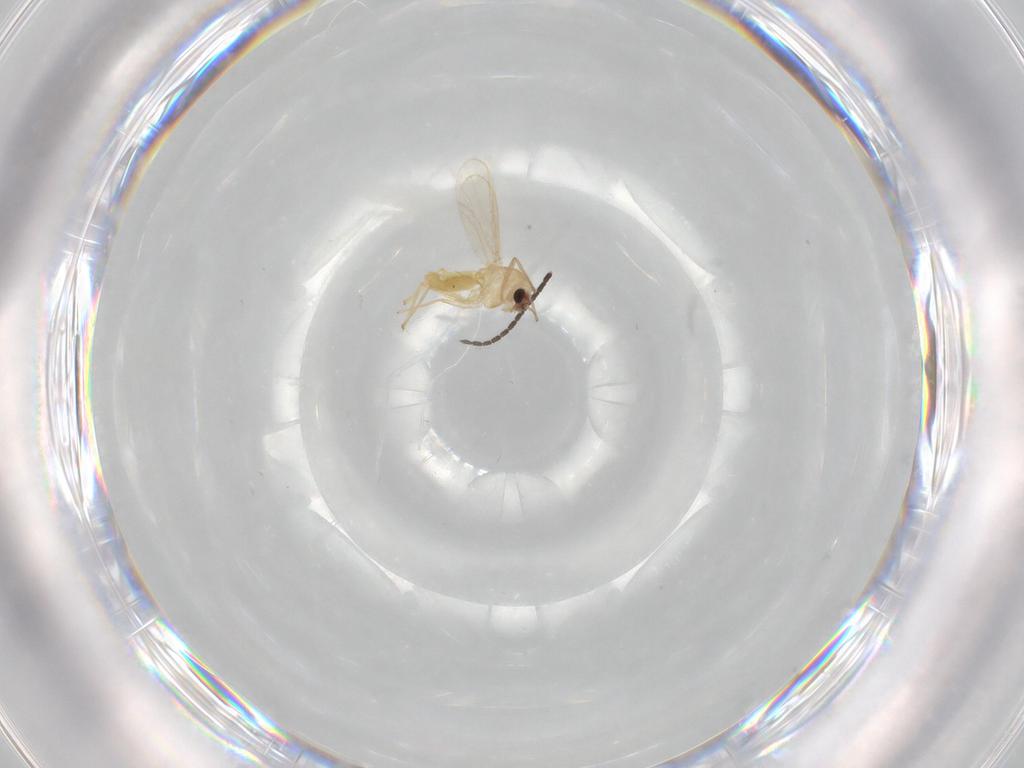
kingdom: Animalia
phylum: Arthropoda
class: Insecta
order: Diptera
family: Chironomidae
